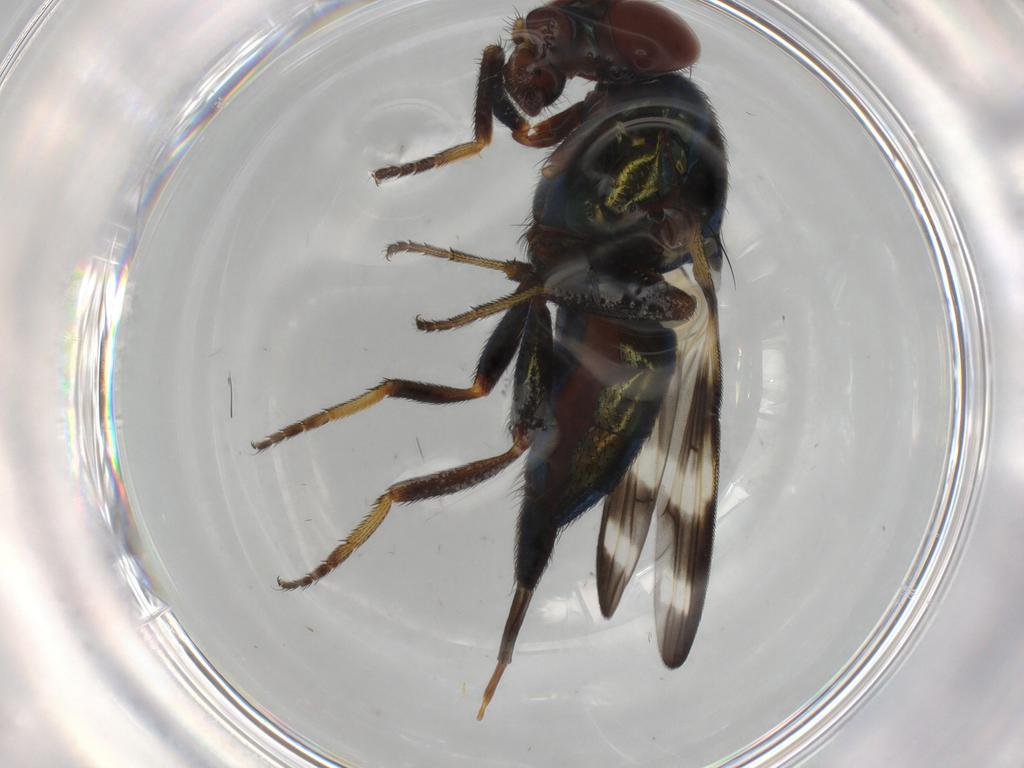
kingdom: Animalia
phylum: Arthropoda
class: Insecta
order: Diptera
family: Ulidiidae
